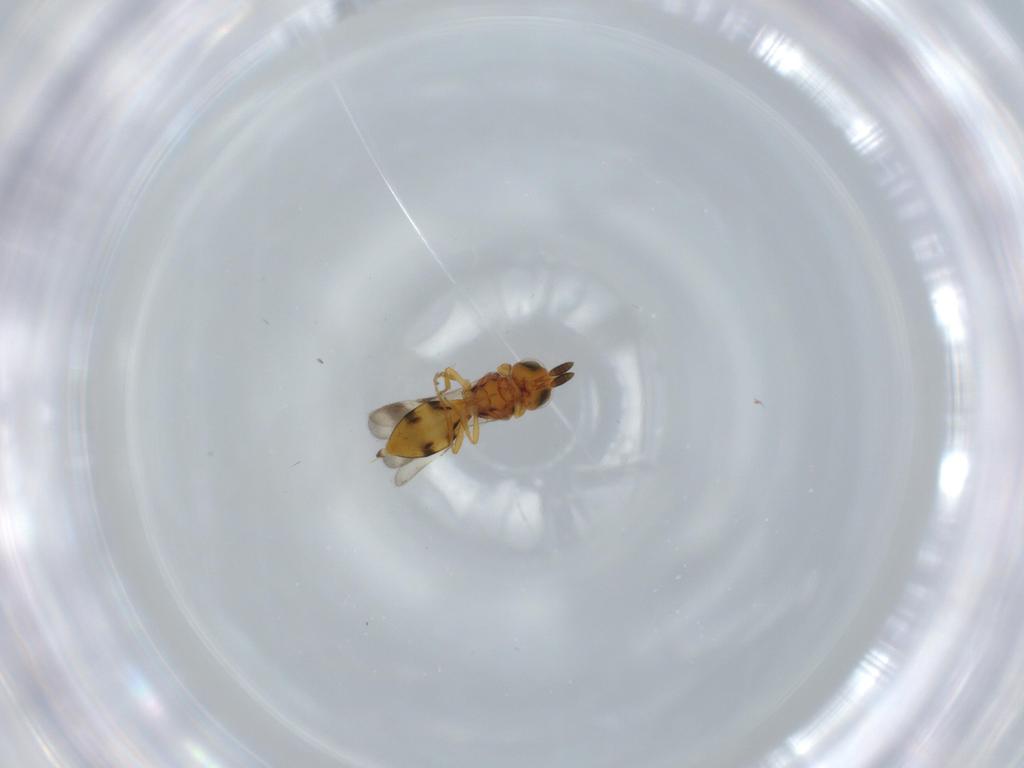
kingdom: Animalia
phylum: Arthropoda
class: Insecta
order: Hymenoptera
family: Scelionidae
